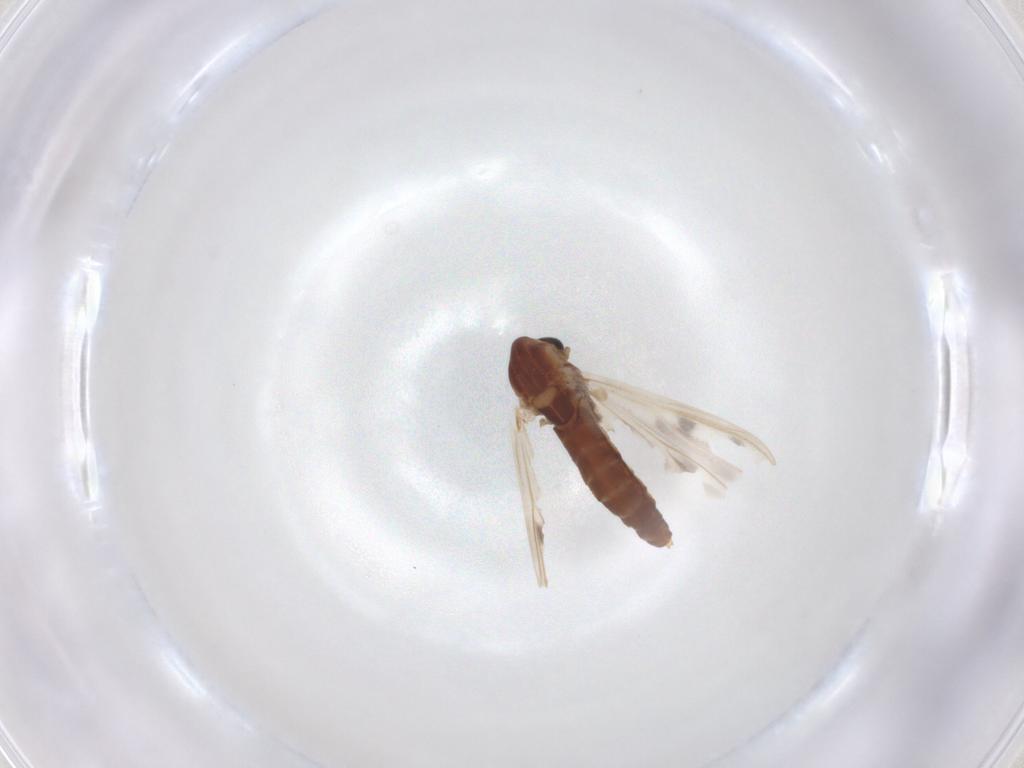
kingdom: Animalia
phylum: Arthropoda
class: Insecta
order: Diptera
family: Chironomidae
